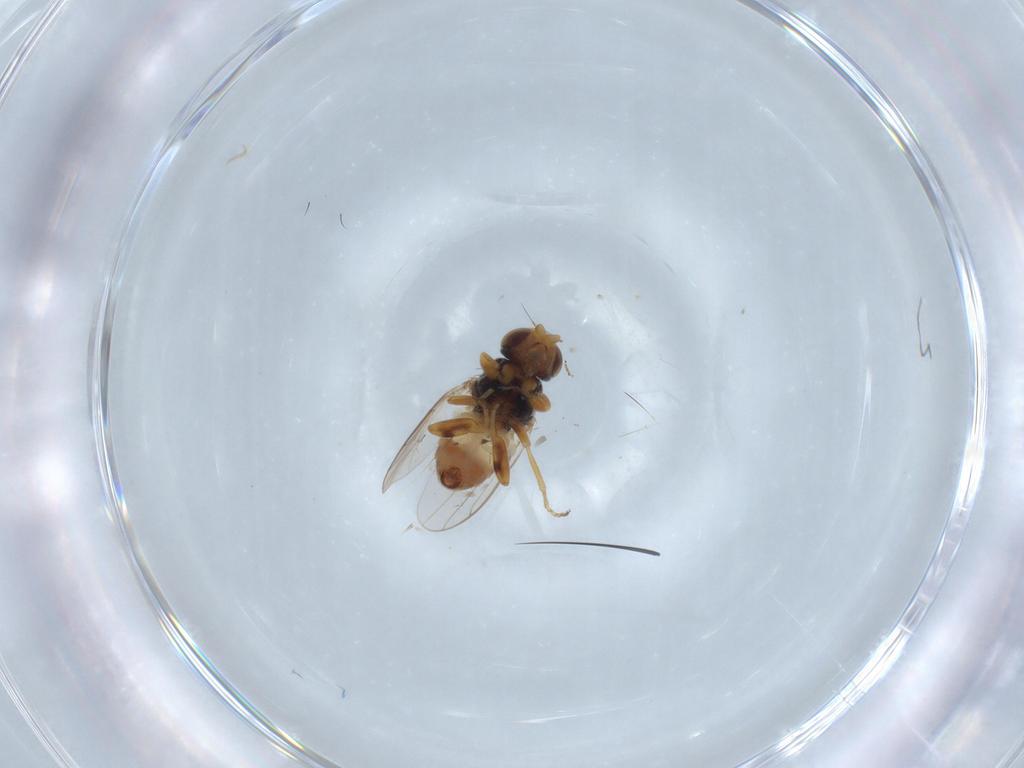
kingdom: Animalia
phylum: Arthropoda
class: Insecta
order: Diptera
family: Chloropidae
